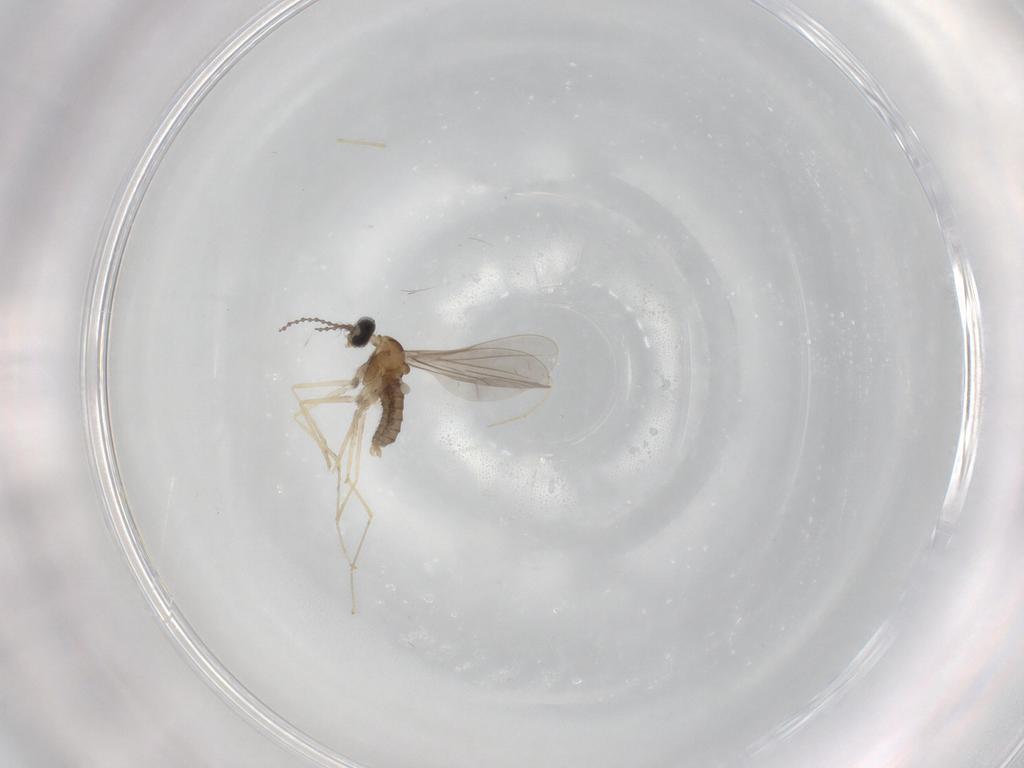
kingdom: Animalia
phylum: Arthropoda
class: Insecta
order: Diptera
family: Cecidomyiidae
